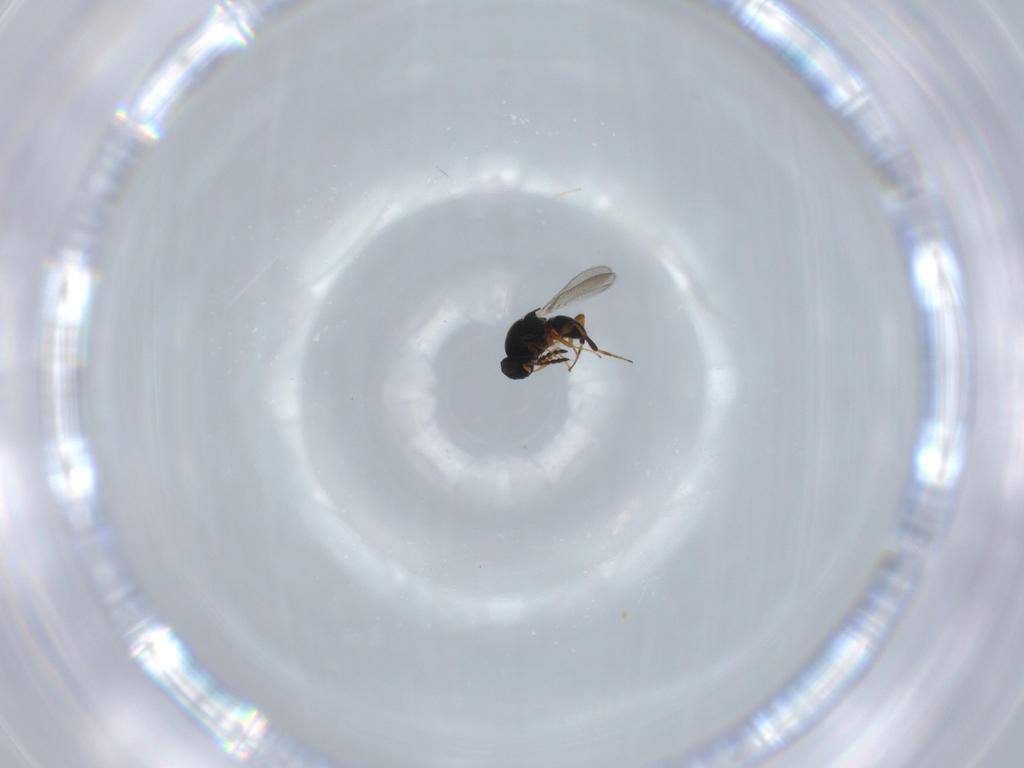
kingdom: Animalia
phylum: Arthropoda
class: Insecta
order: Hymenoptera
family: Platygastridae
